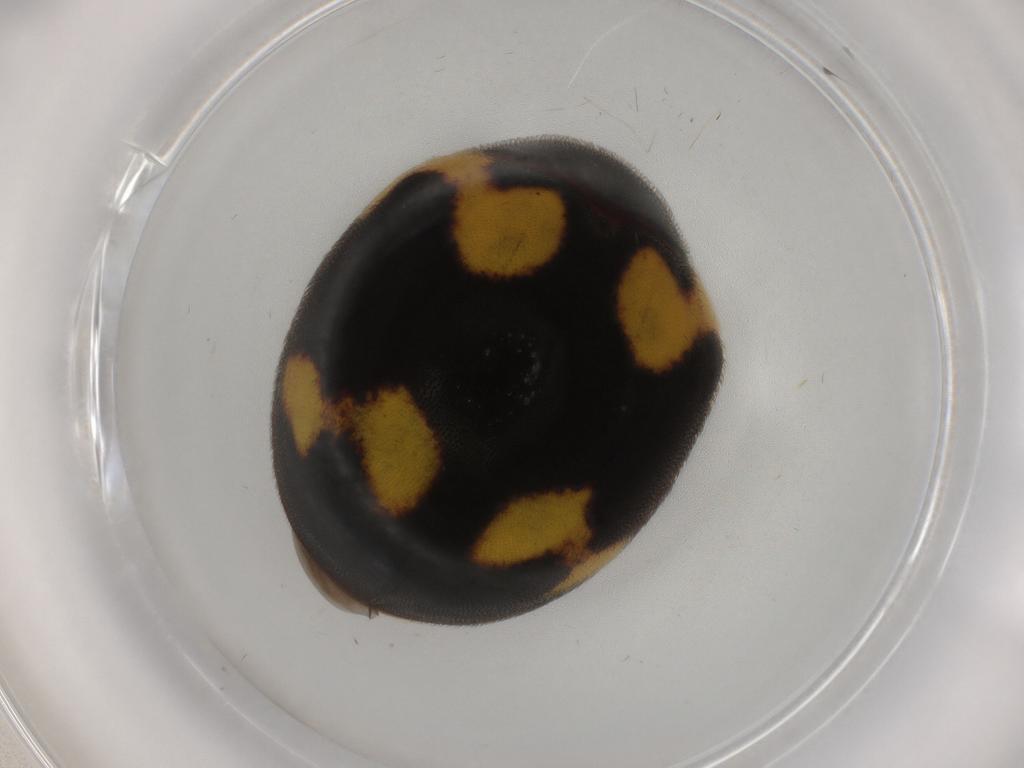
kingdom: Animalia
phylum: Arthropoda
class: Insecta
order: Coleoptera
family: Coccinellidae
